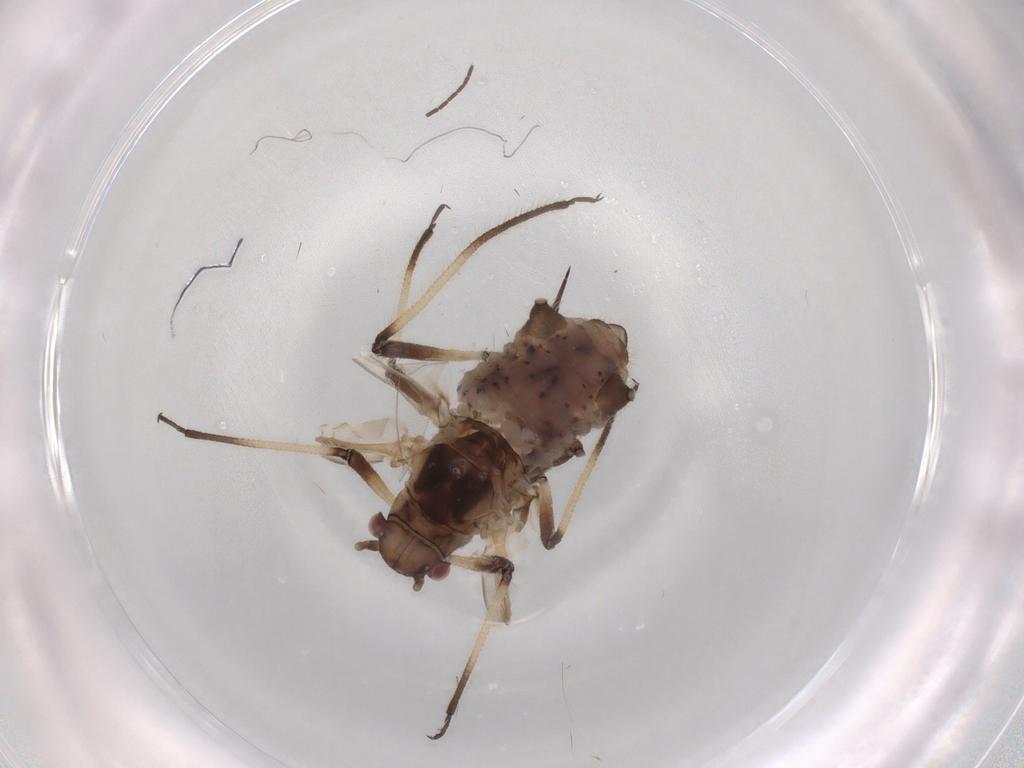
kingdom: Animalia
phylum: Arthropoda
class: Insecta
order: Hemiptera
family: Aphididae
